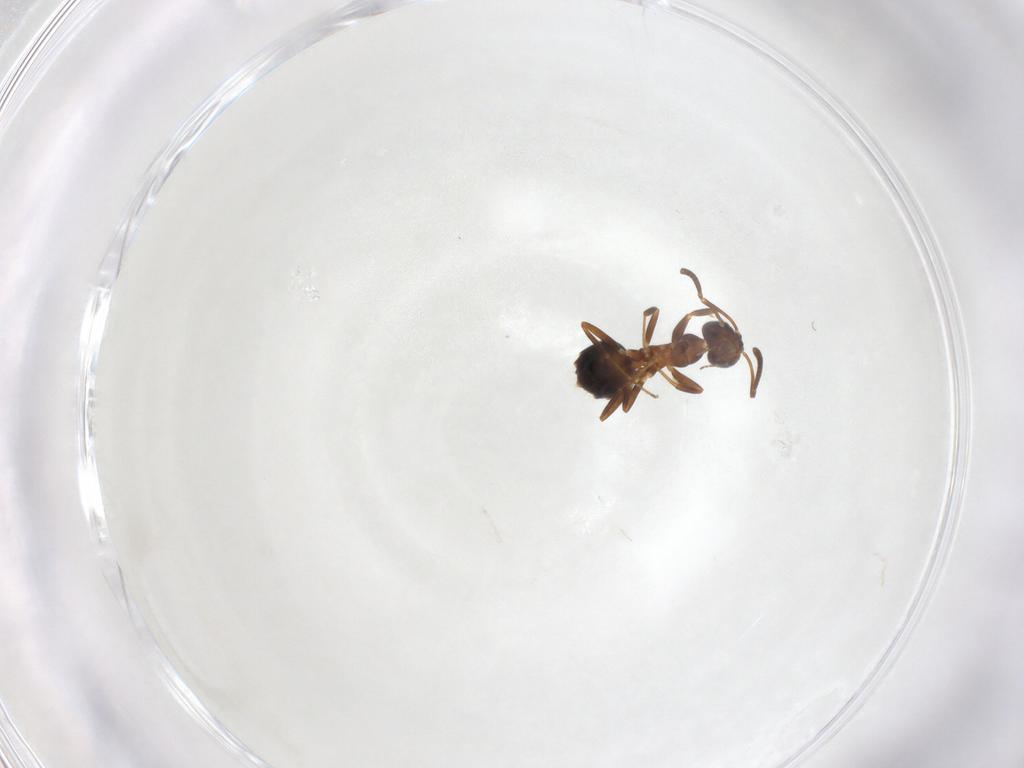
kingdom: Animalia
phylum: Arthropoda
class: Insecta
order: Hymenoptera
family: Formicidae
